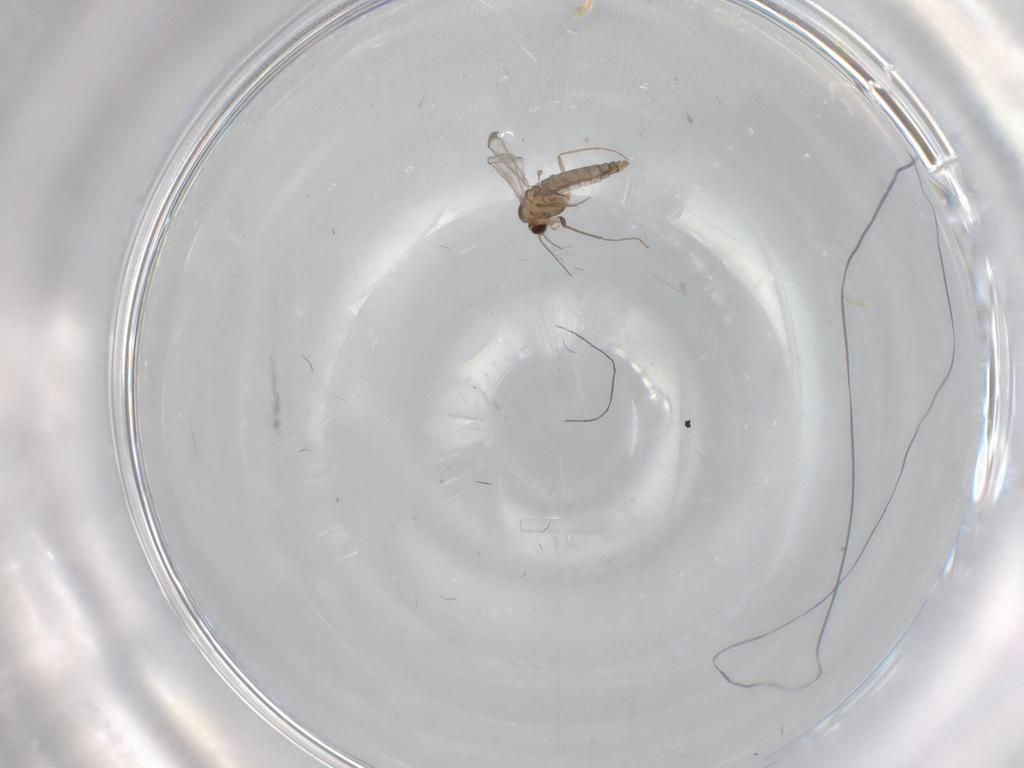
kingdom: Animalia
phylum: Arthropoda
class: Insecta
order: Diptera
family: Chironomidae
